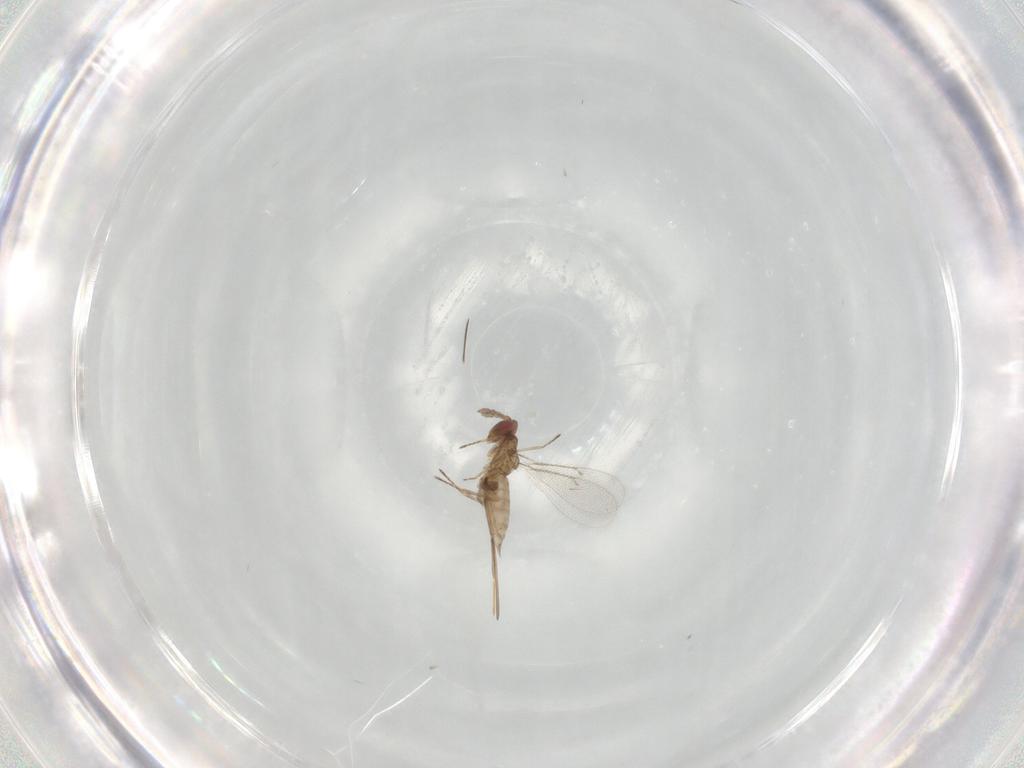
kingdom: Animalia
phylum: Arthropoda
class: Insecta
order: Hymenoptera
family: Eulophidae
